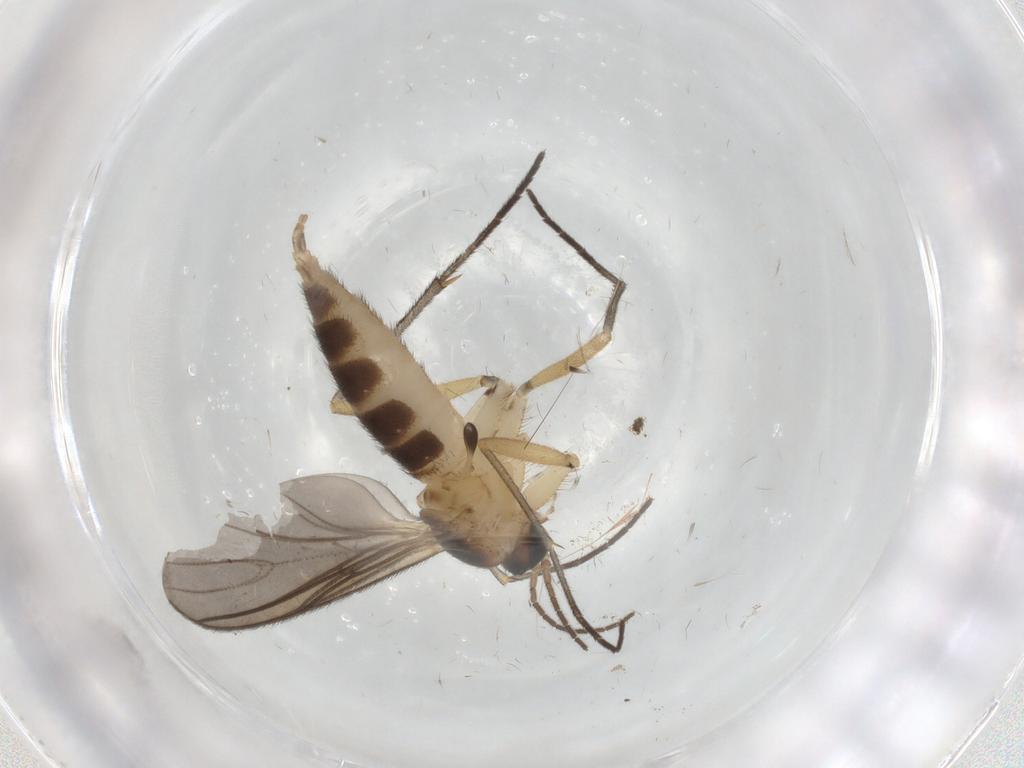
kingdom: Animalia
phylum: Arthropoda
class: Insecta
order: Diptera
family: Sciaridae
